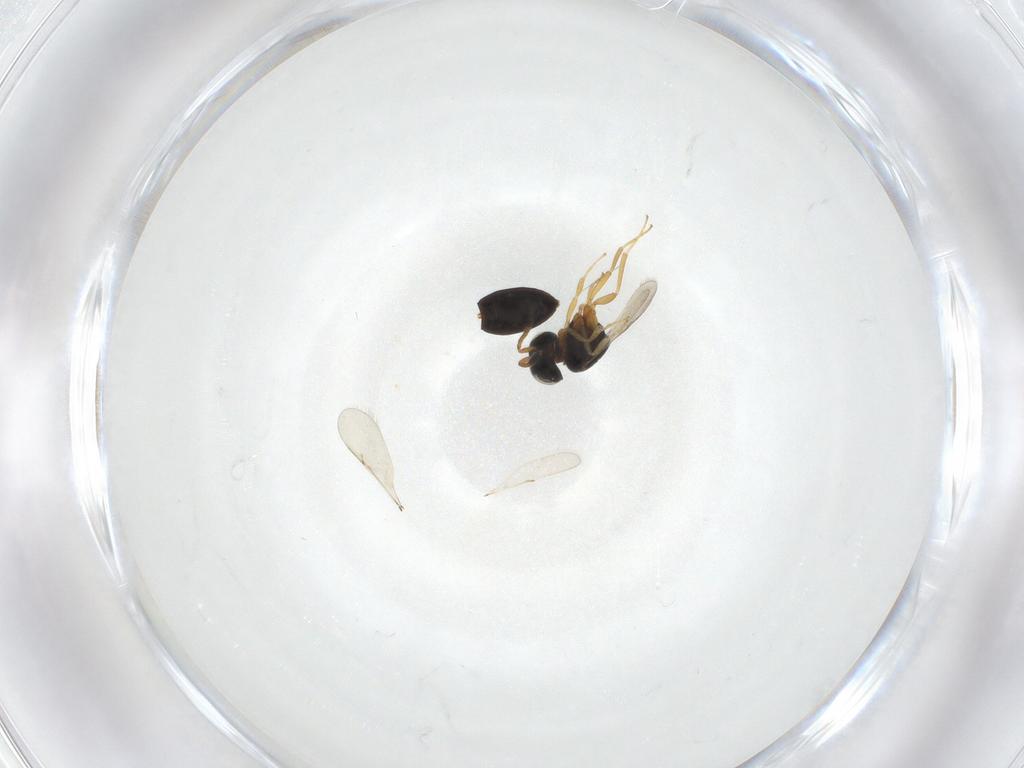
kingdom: Animalia
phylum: Arthropoda
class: Insecta
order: Hymenoptera
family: Scelionidae
